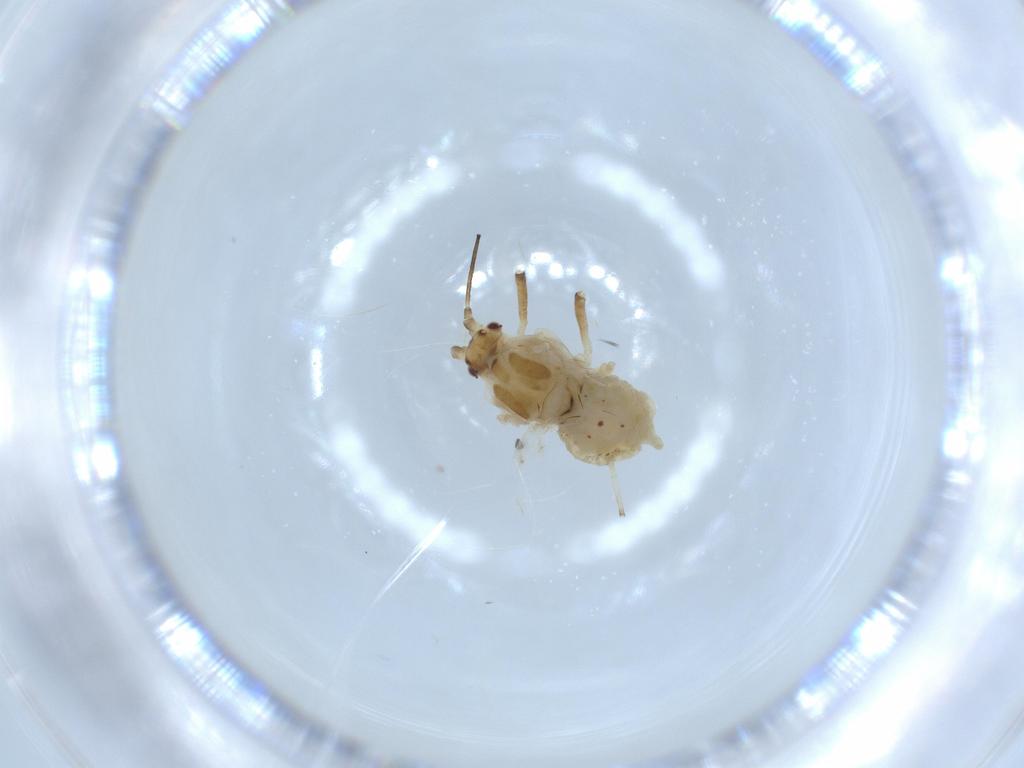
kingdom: Animalia
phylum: Arthropoda
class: Insecta
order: Hemiptera
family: Aphididae
